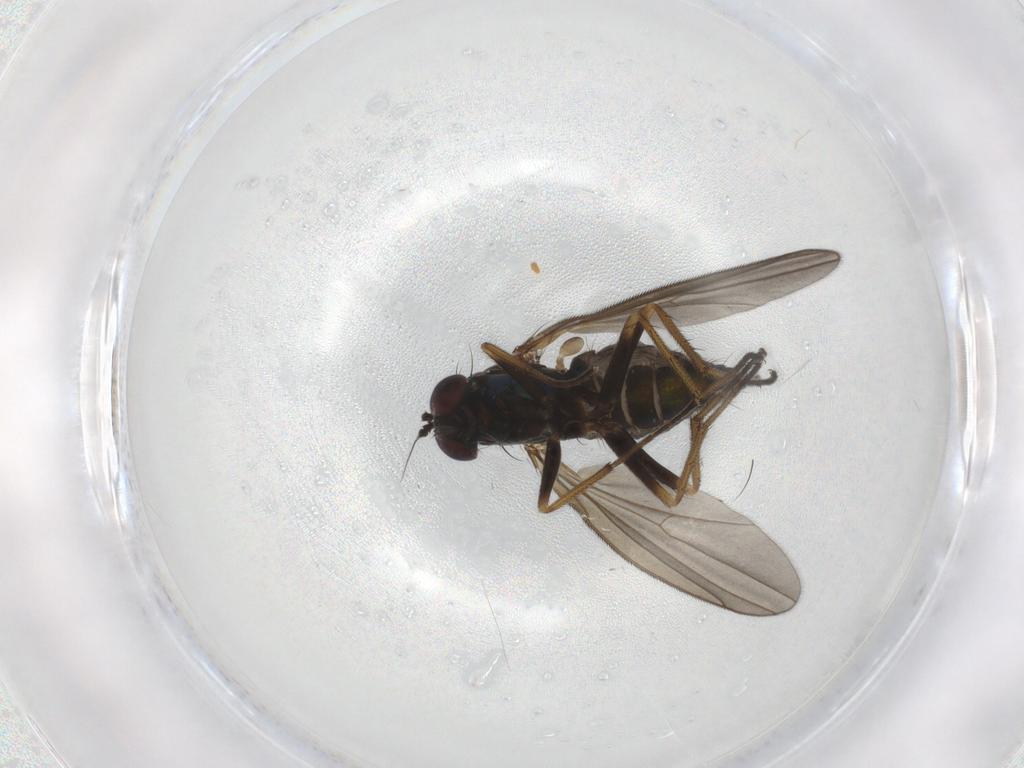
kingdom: Animalia
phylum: Arthropoda
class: Insecta
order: Diptera
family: Dolichopodidae
